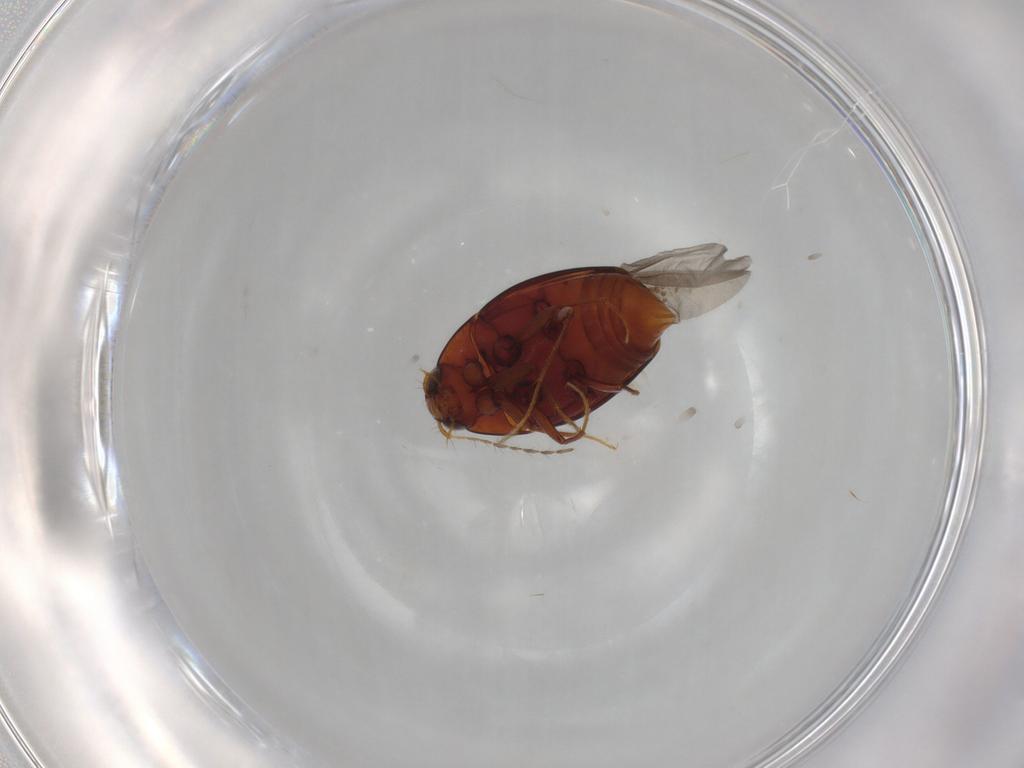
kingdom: Animalia
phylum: Arthropoda
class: Insecta
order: Coleoptera
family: Staphylinidae
